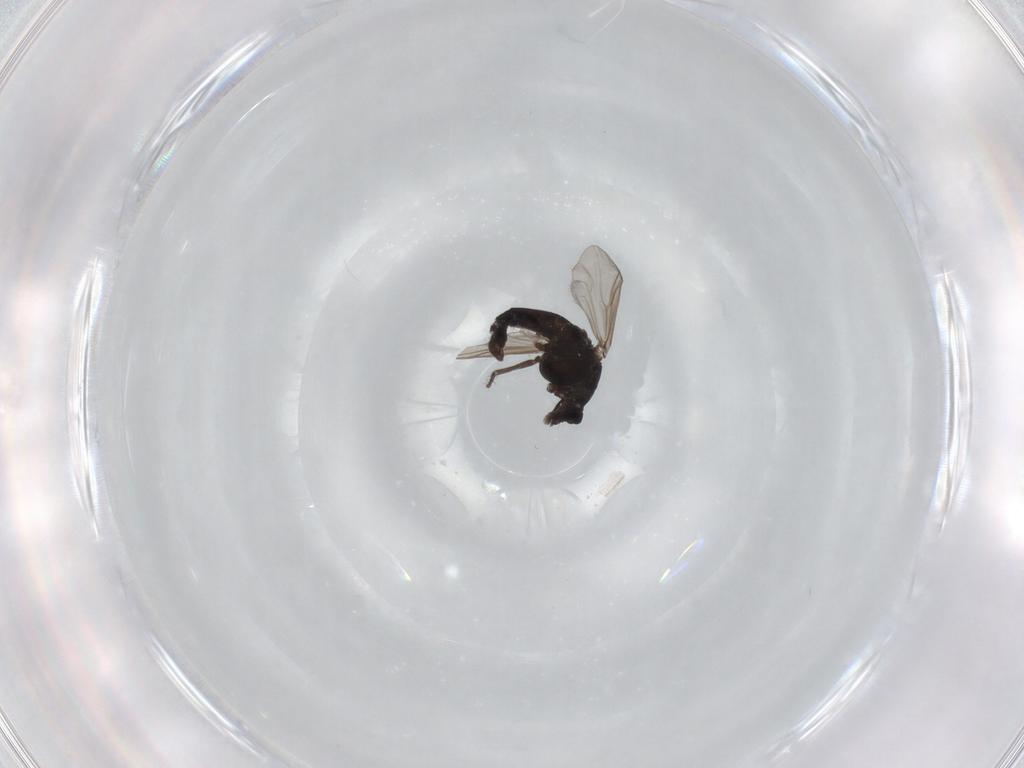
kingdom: Animalia
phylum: Arthropoda
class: Insecta
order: Diptera
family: Chironomidae
